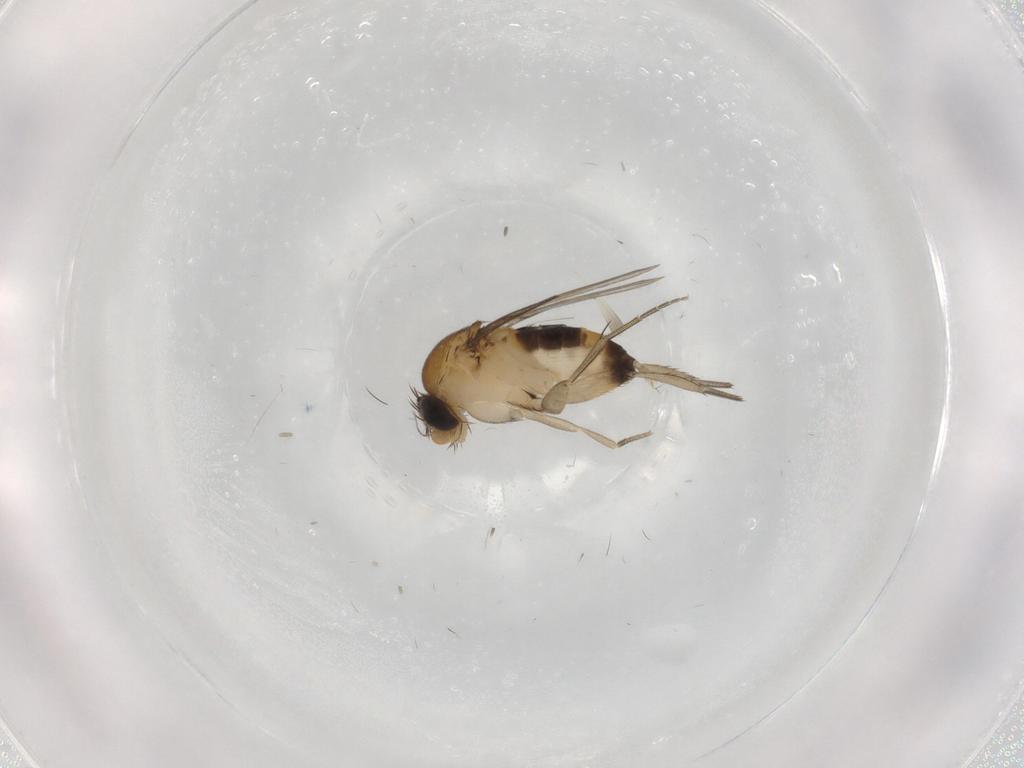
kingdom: Animalia
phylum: Arthropoda
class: Insecta
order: Diptera
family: Phoridae
